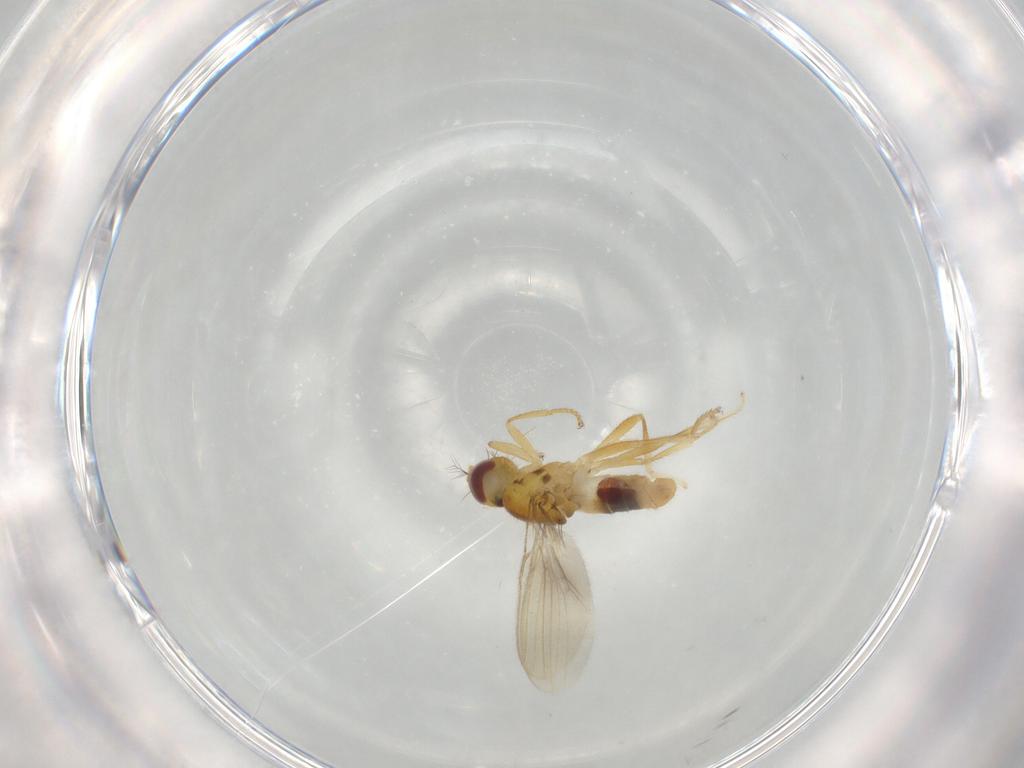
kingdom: Animalia
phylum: Arthropoda
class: Insecta
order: Diptera
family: Periscelididae
